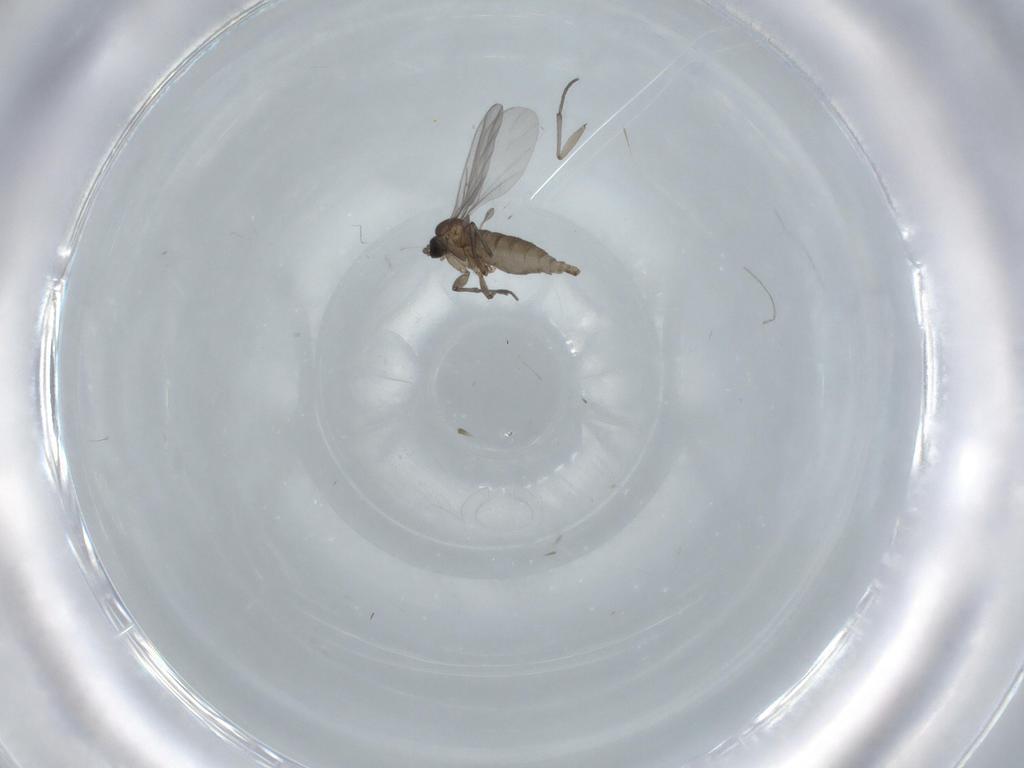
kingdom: Animalia
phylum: Arthropoda
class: Insecta
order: Diptera
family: Sciaridae
